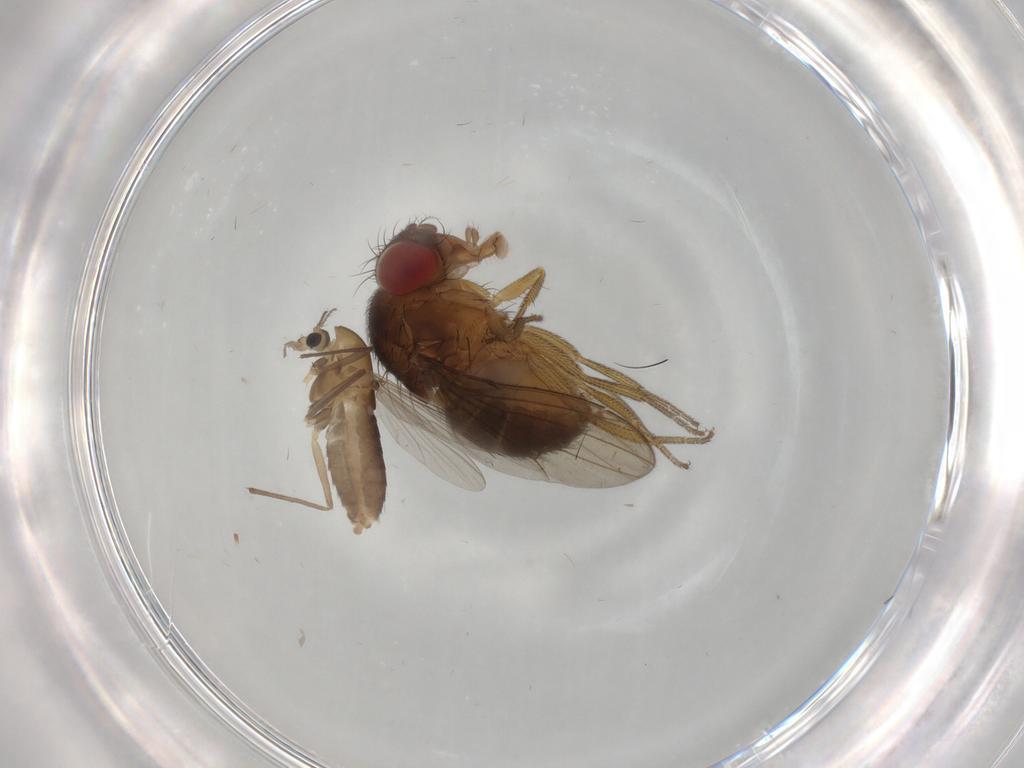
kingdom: Animalia
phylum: Arthropoda
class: Insecta
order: Diptera
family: Drosophilidae
